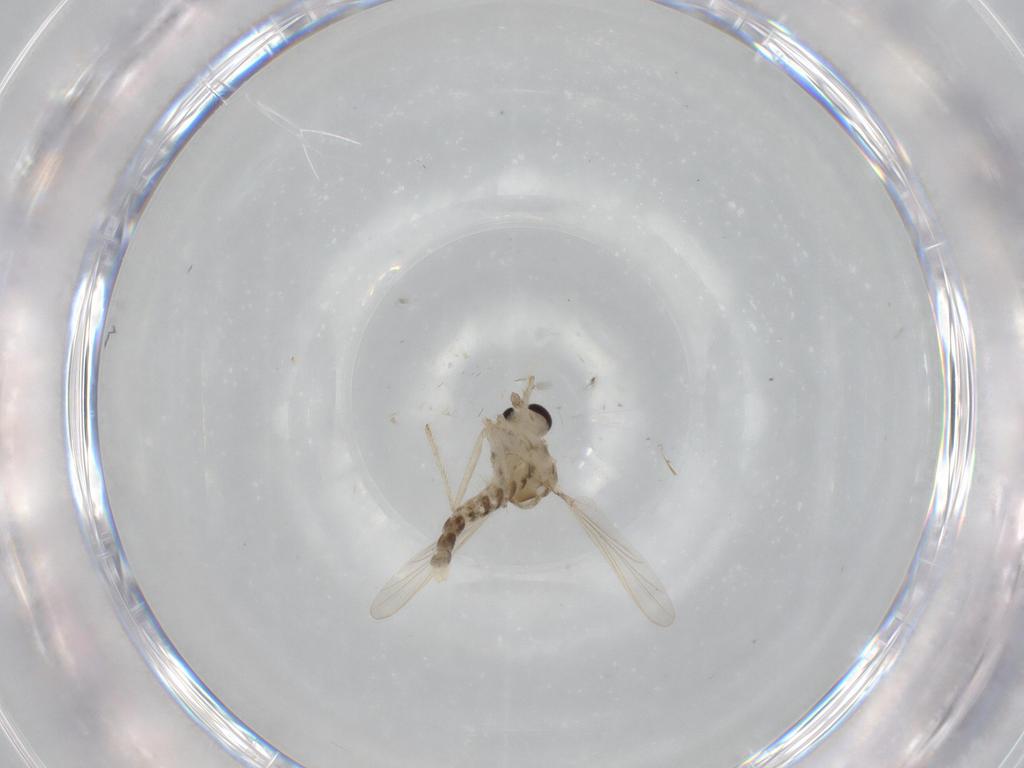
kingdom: Animalia
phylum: Arthropoda
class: Insecta
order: Diptera
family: Chironomidae
